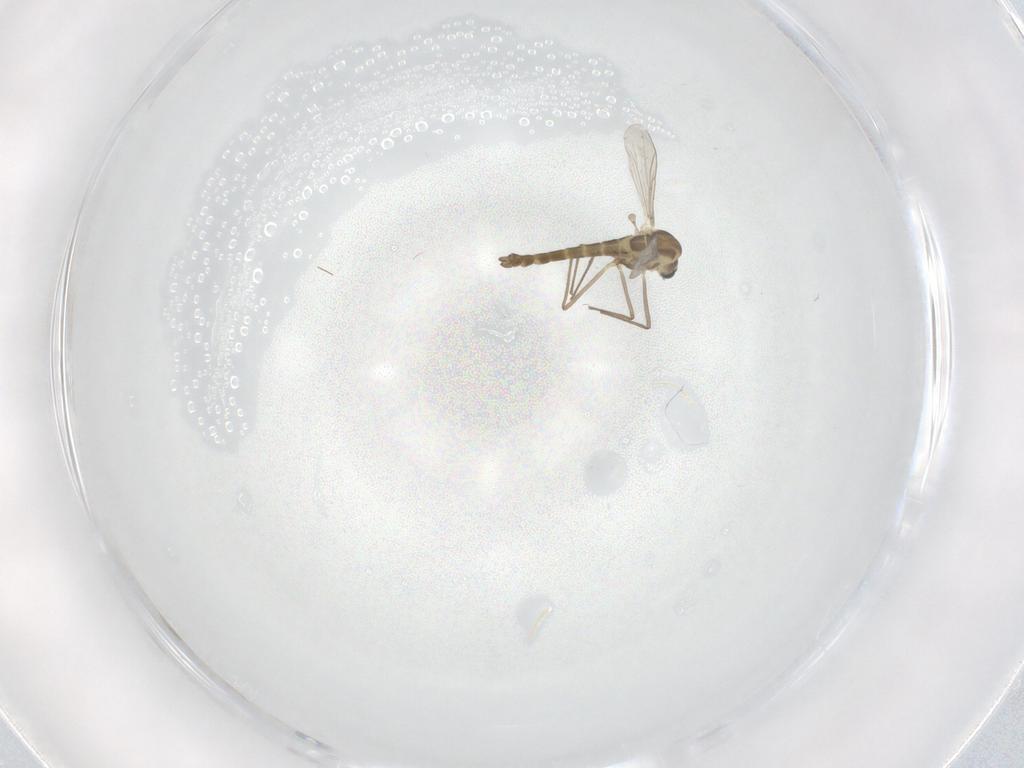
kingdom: Animalia
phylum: Arthropoda
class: Insecta
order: Diptera
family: Chironomidae
